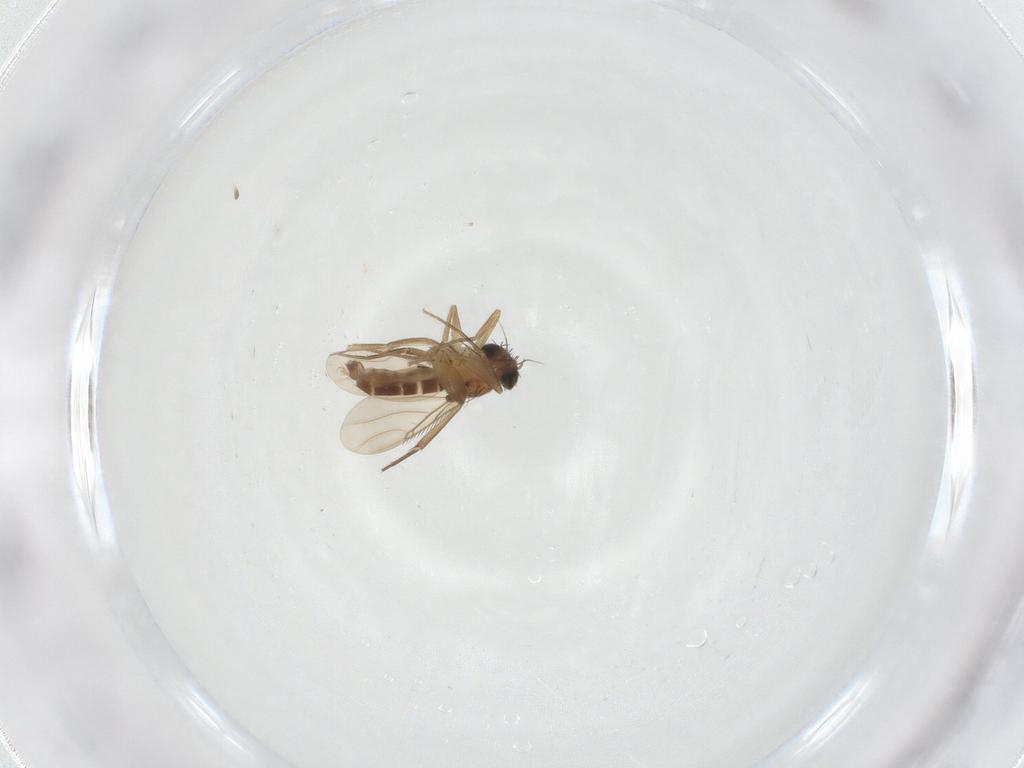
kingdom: Animalia
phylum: Arthropoda
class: Insecta
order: Diptera
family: Phoridae
